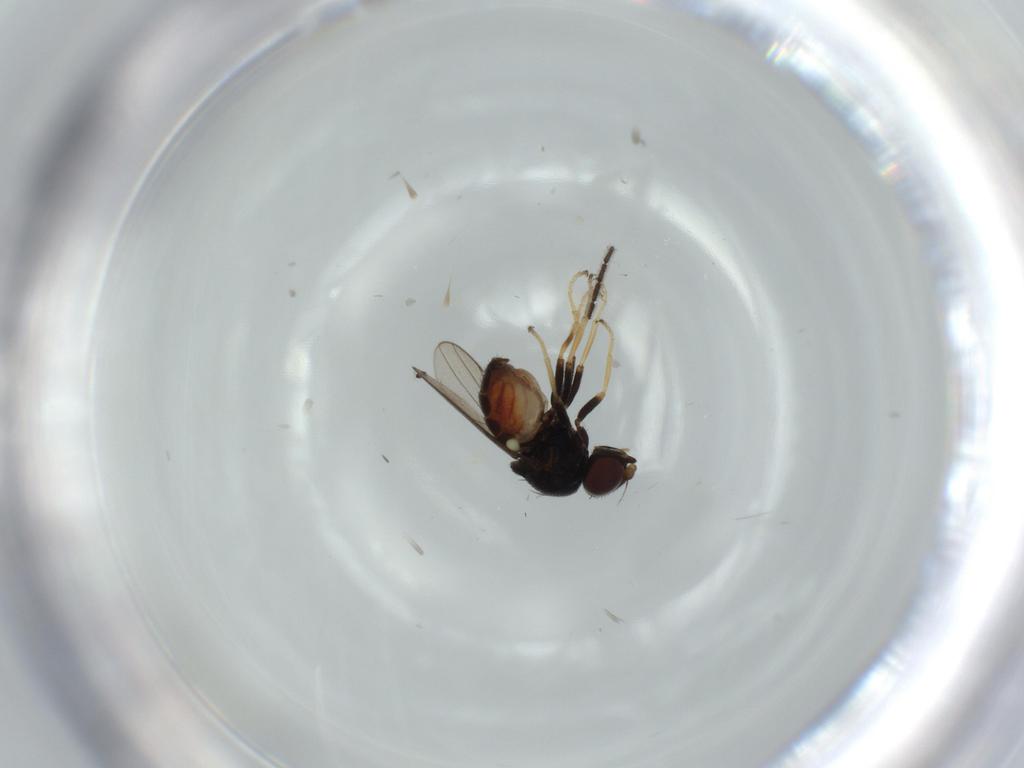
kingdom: Animalia
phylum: Arthropoda
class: Insecta
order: Diptera
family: Chloropidae
